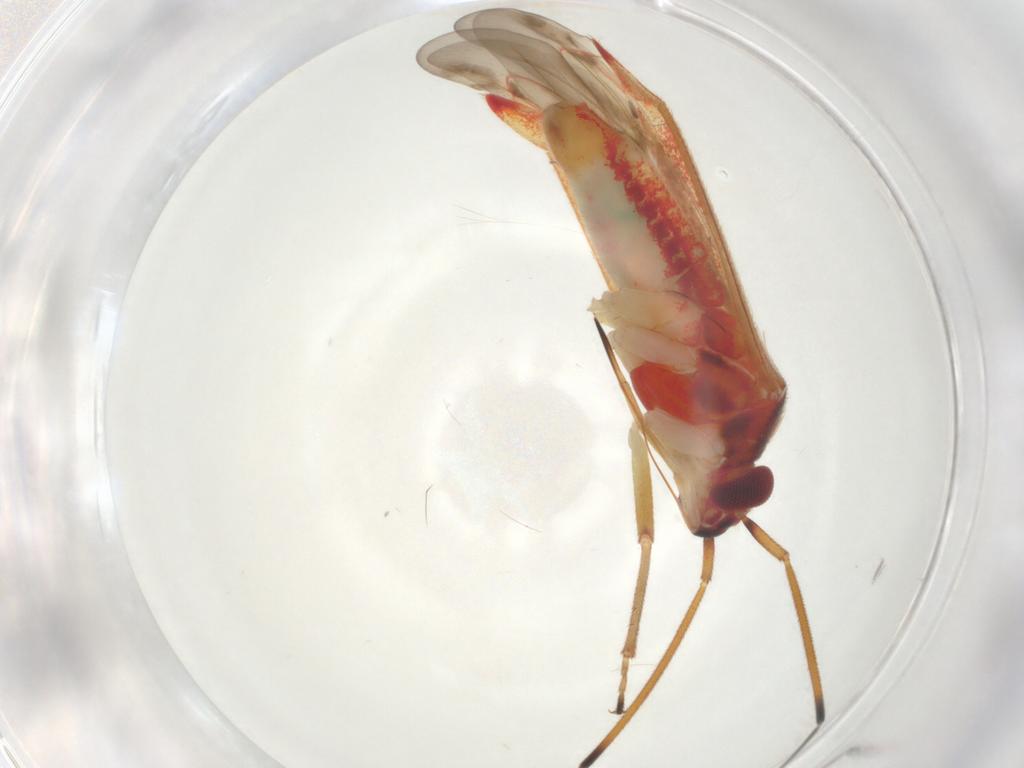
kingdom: Animalia
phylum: Arthropoda
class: Insecta
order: Hemiptera
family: Miridae
